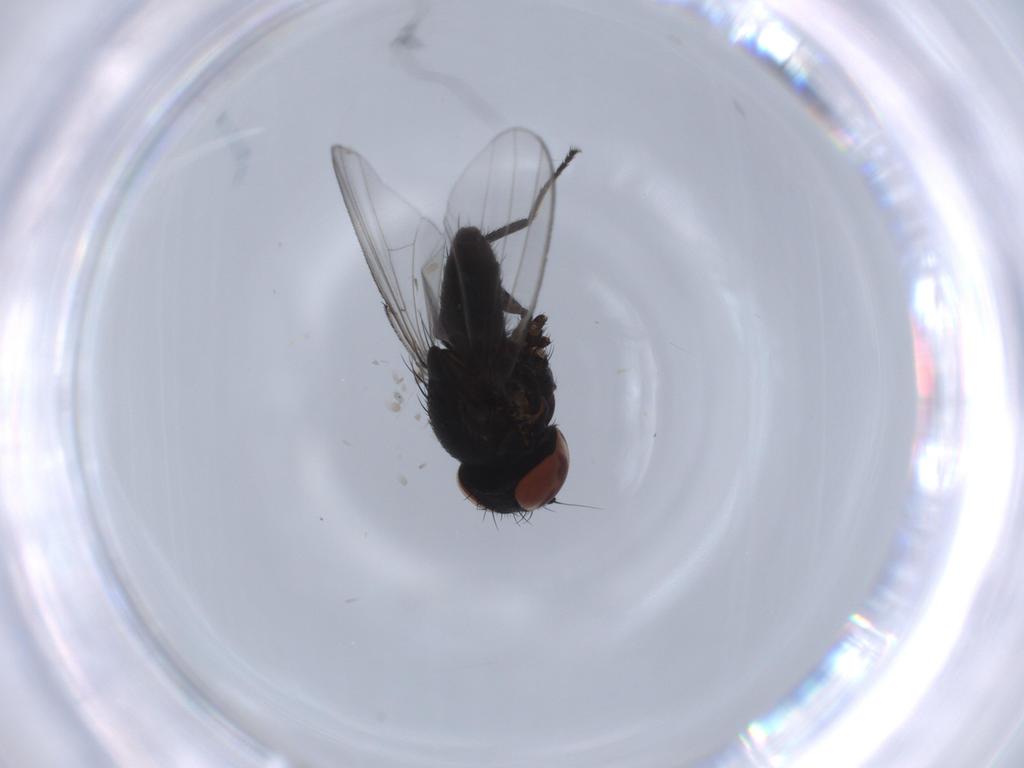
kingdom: Animalia
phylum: Arthropoda
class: Insecta
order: Diptera
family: Milichiidae
